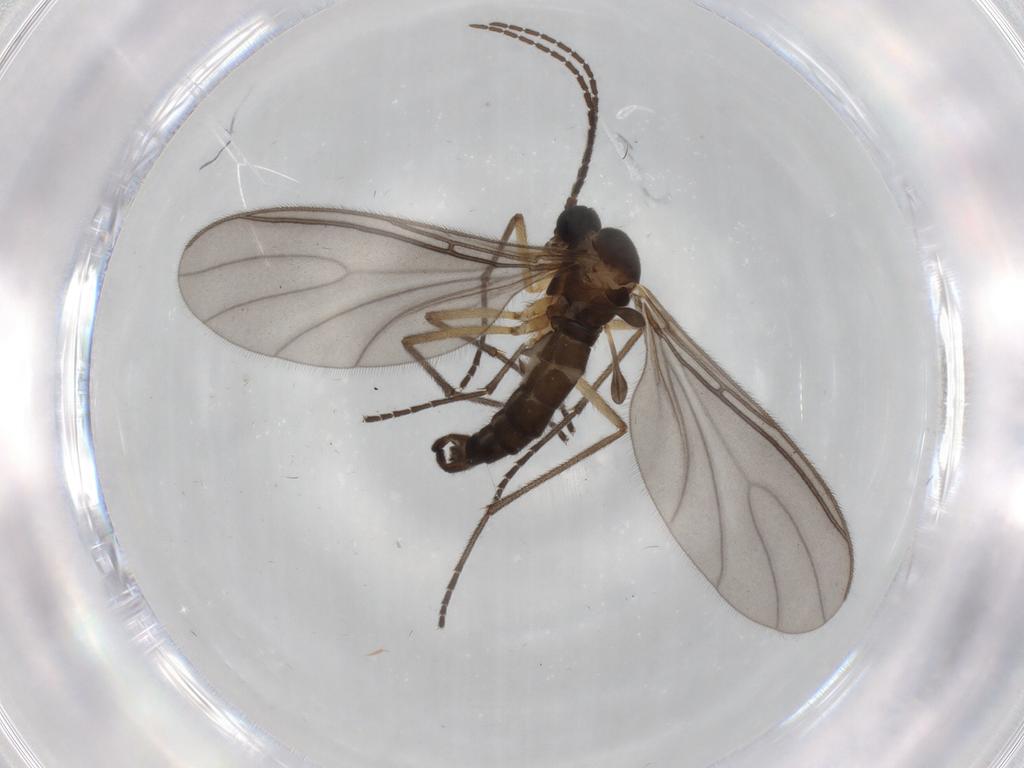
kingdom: Animalia
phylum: Arthropoda
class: Insecta
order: Diptera
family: Sciaridae
